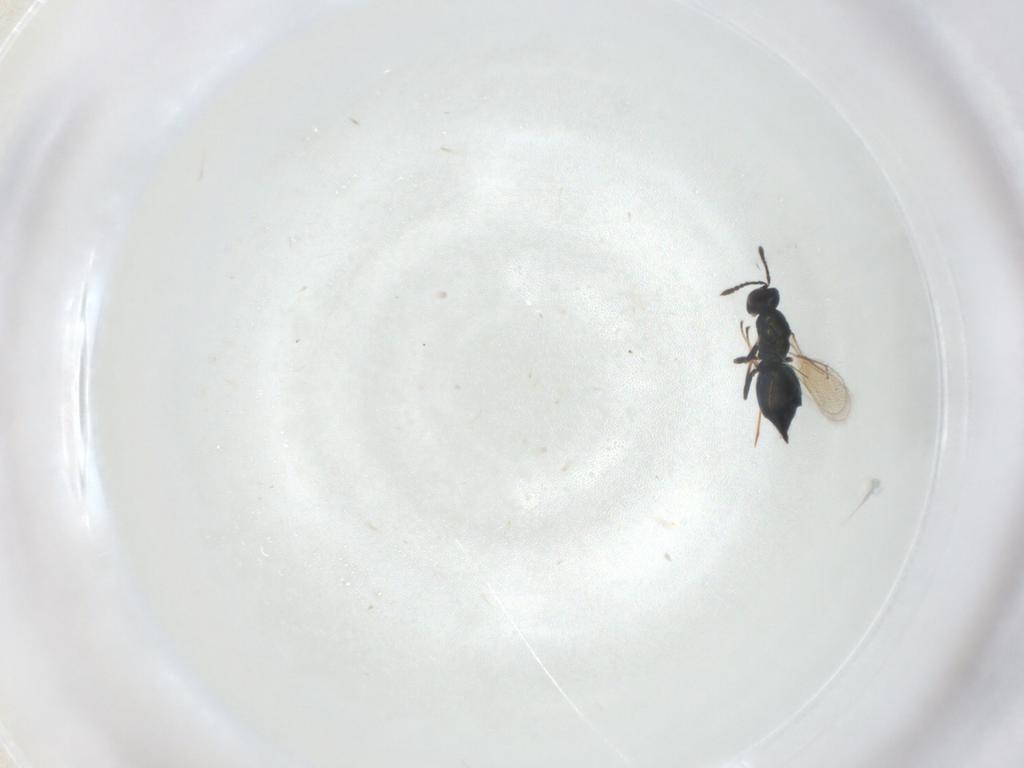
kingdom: Animalia
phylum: Arthropoda
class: Insecta
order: Hymenoptera
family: Eulophidae
